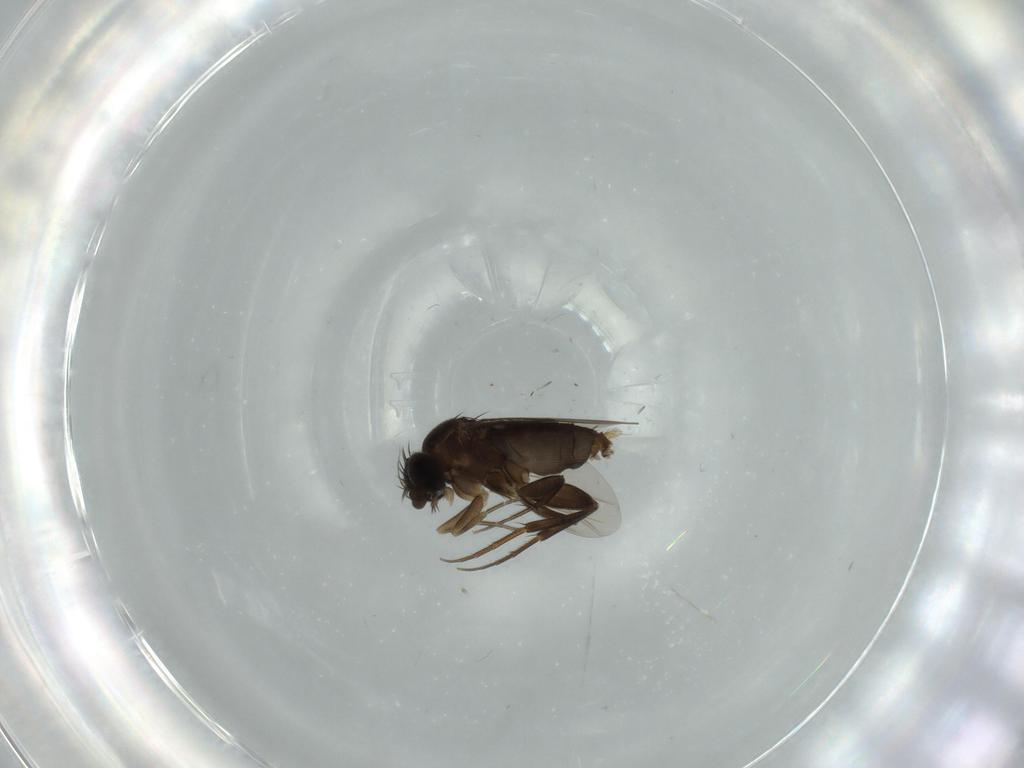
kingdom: Animalia
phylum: Arthropoda
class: Insecta
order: Diptera
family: Phoridae
